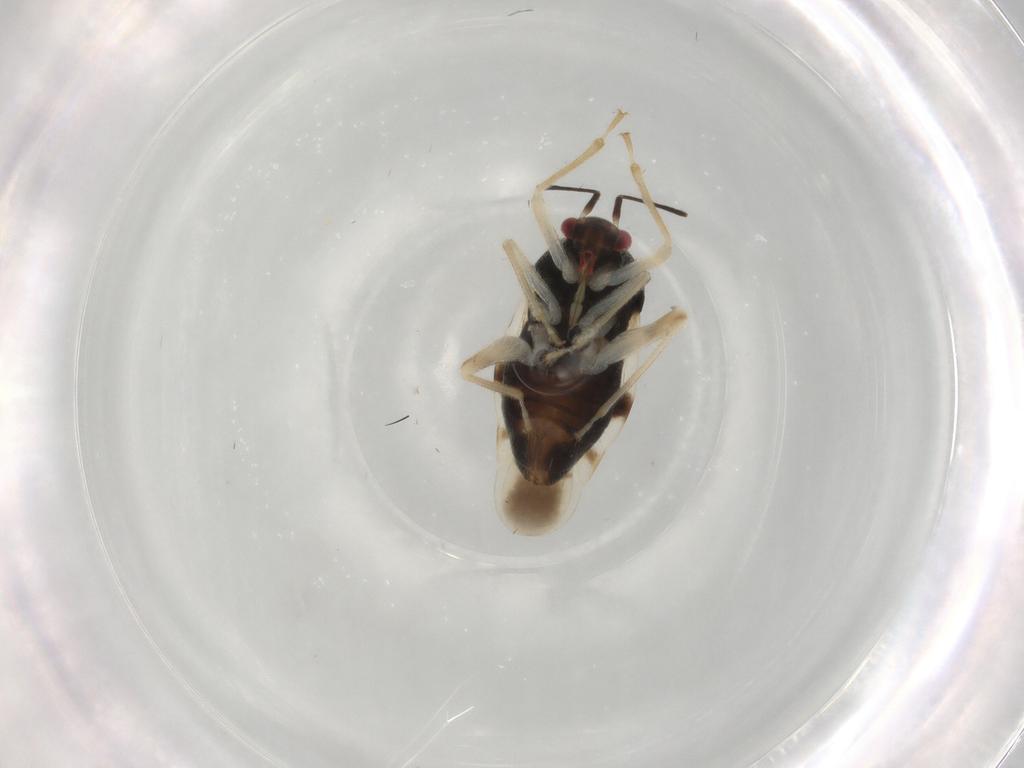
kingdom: Animalia
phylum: Arthropoda
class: Insecta
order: Hemiptera
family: Miridae
